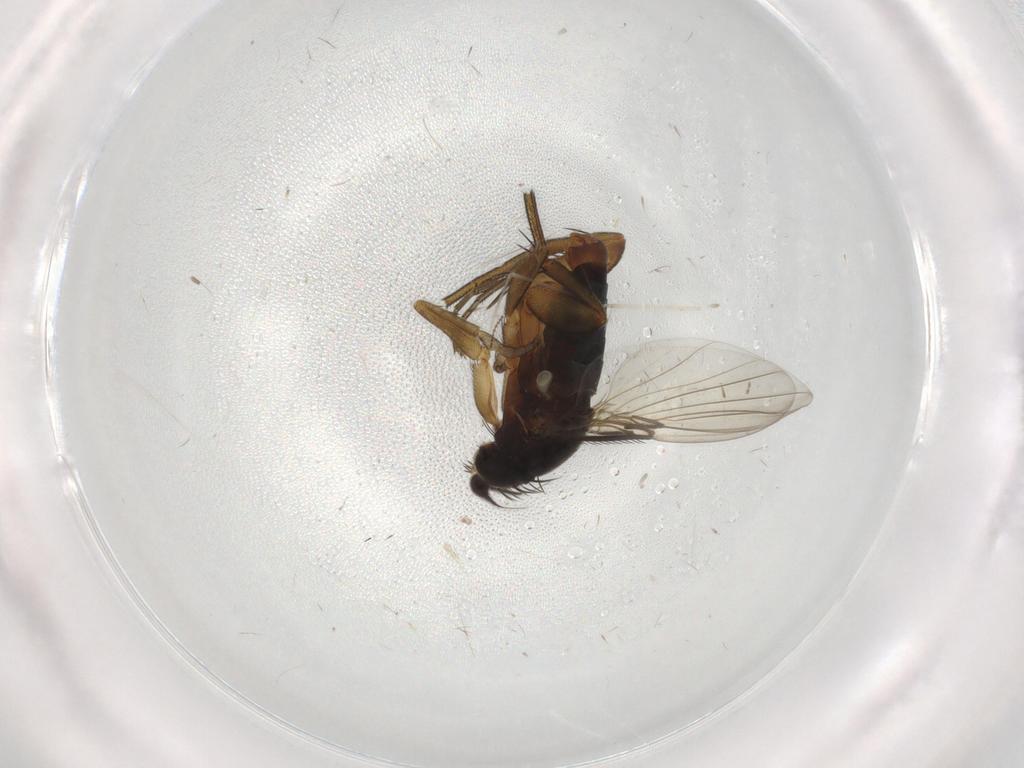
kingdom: Animalia
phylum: Arthropoda
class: Insecta
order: Diptera
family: Phoridae
